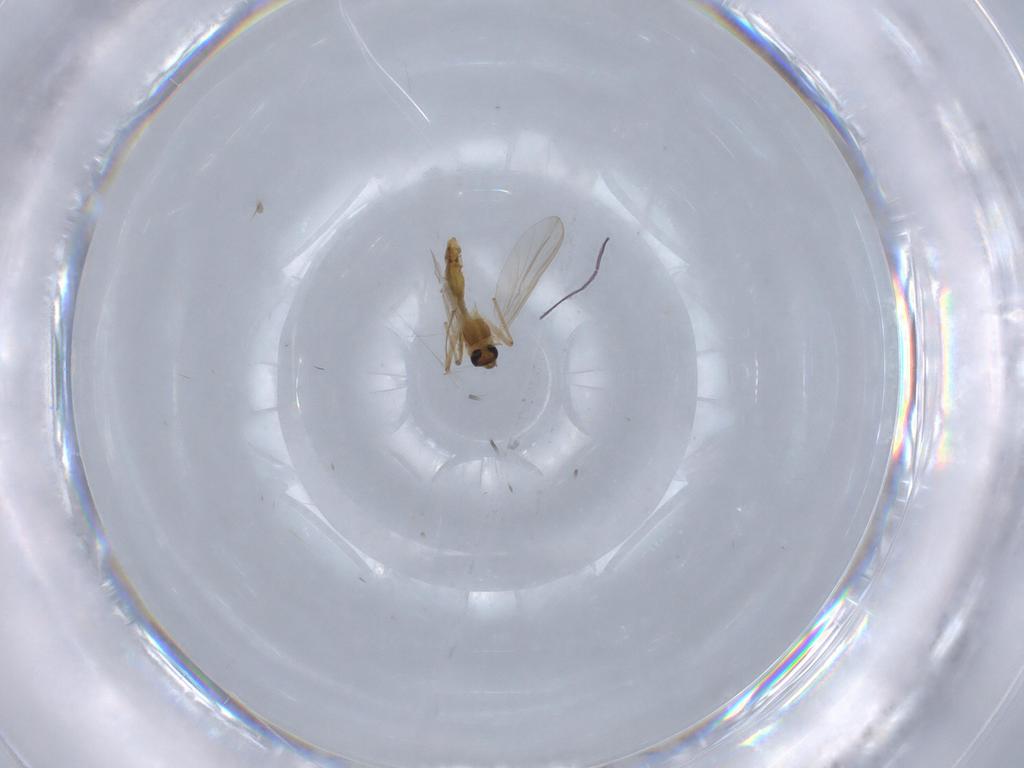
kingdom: Animalia
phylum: Arthropoda
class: Insecta
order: Diptera
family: Chironomidae
